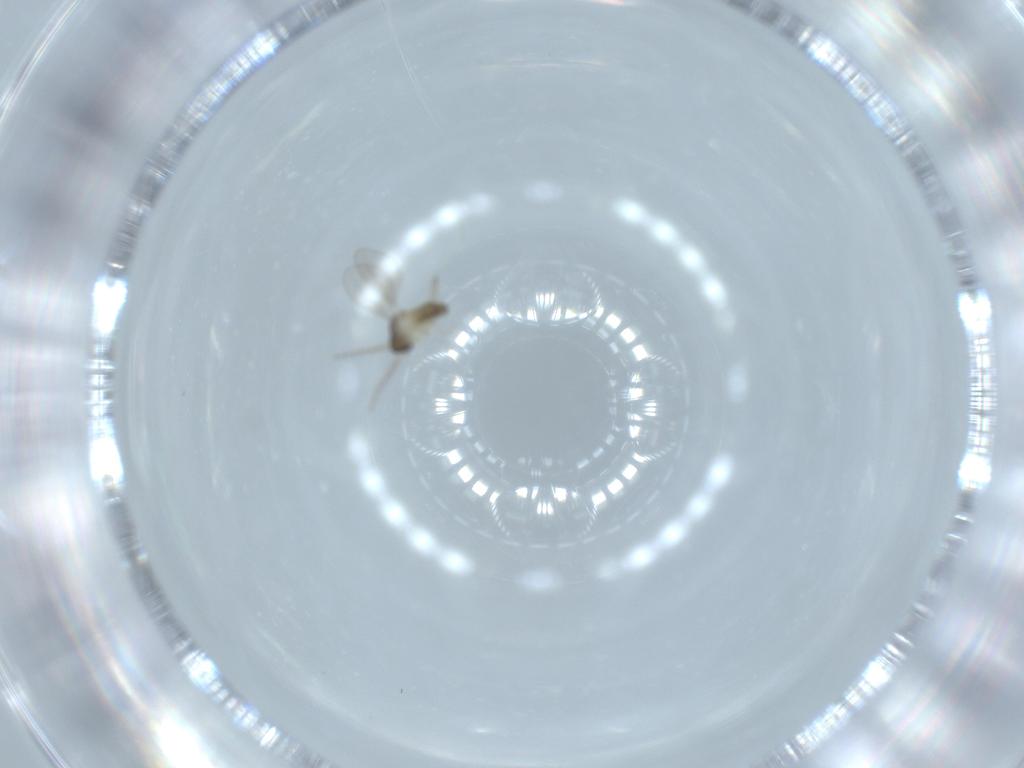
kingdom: Animalia
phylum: Arthropoda
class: Insecta
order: Diptera
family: Cecidomyiidae
